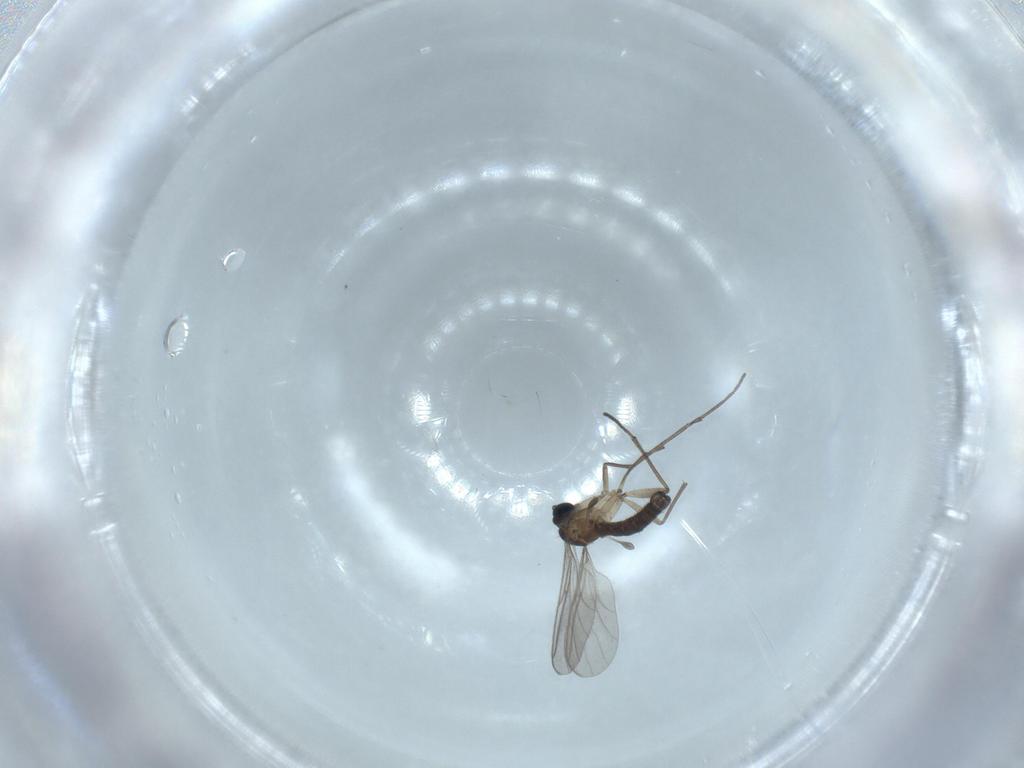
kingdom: Animalia
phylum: Arthropoda
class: Insecta
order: Diptera
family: Sciaridae
